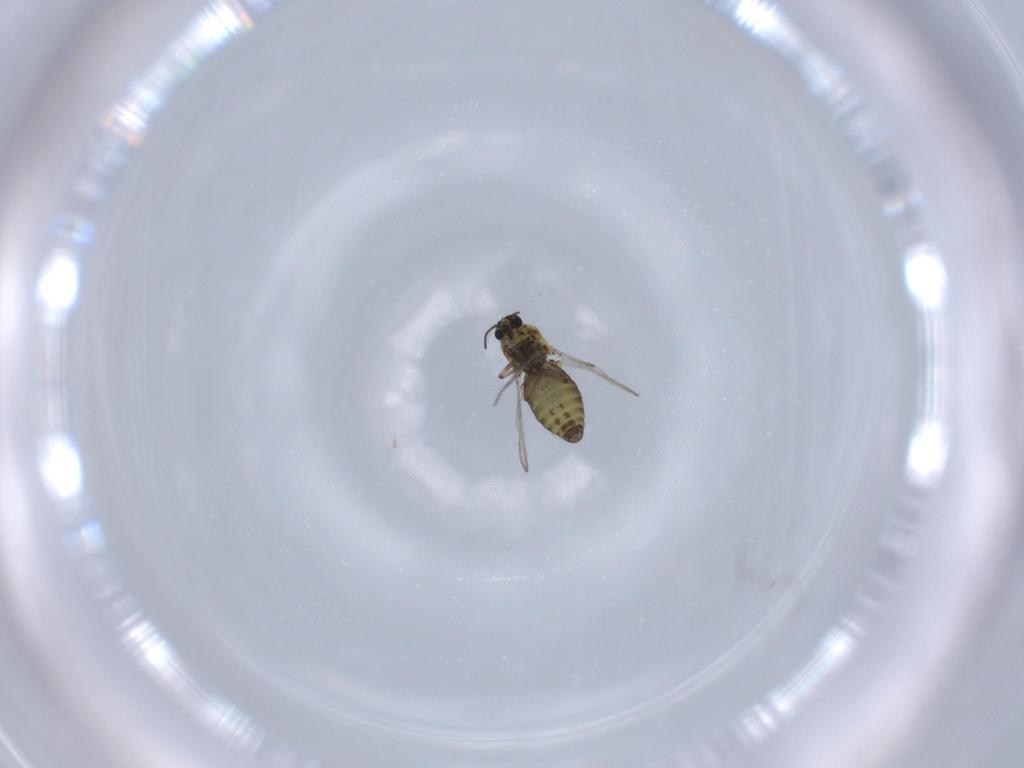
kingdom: Animalia
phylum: Arthropoda
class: Insecta
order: Diptera
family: Ceratopogonidae
